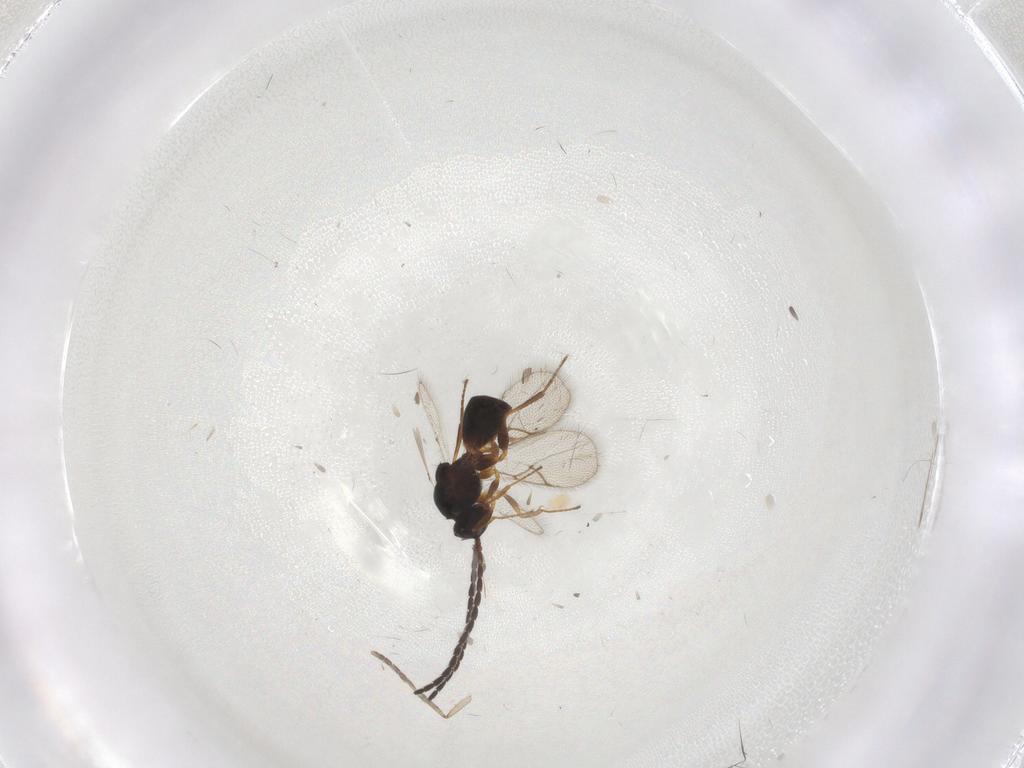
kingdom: Animalia
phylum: Arthropoda
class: Insecta
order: Hymenoptera
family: Figitidae
